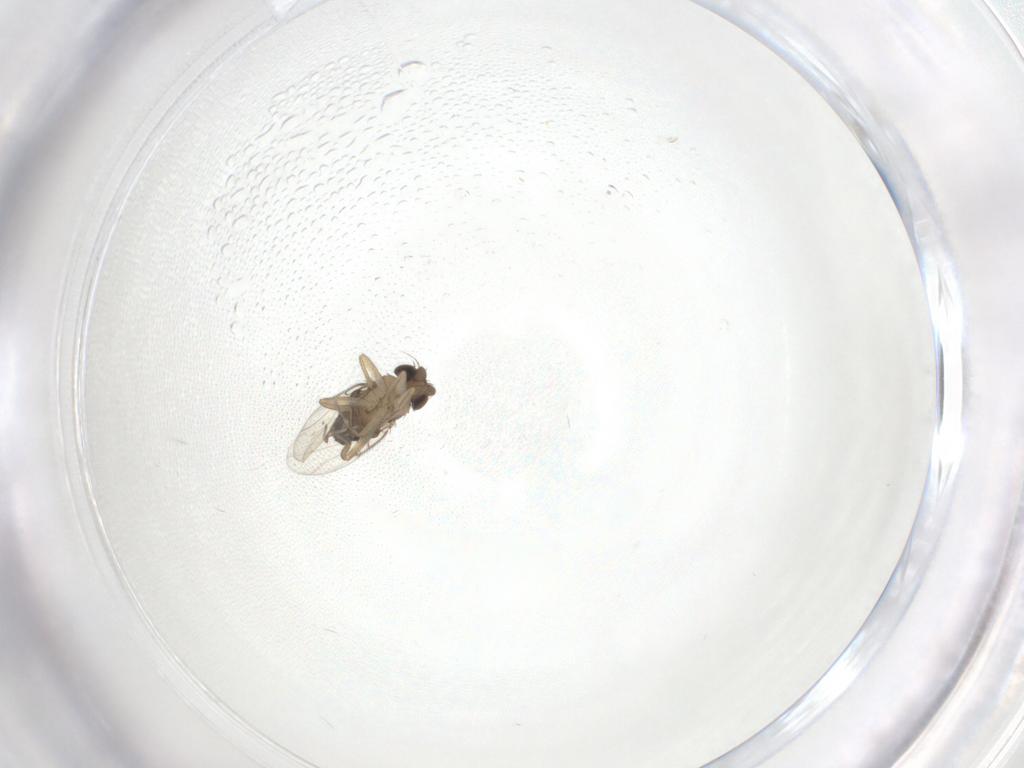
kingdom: Animalia
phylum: Arthropoda
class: Insecta
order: Diptera
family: Phoridae
